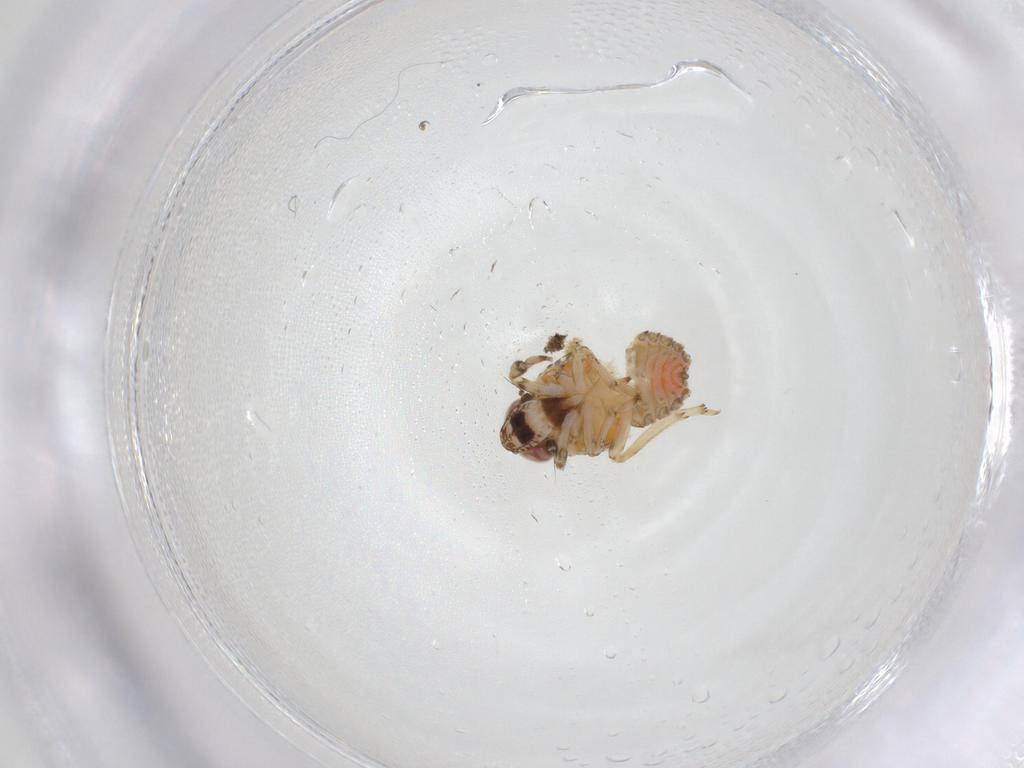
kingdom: Animalia
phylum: Arthropoda
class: Insecta
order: Hemiptera
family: Issidae
